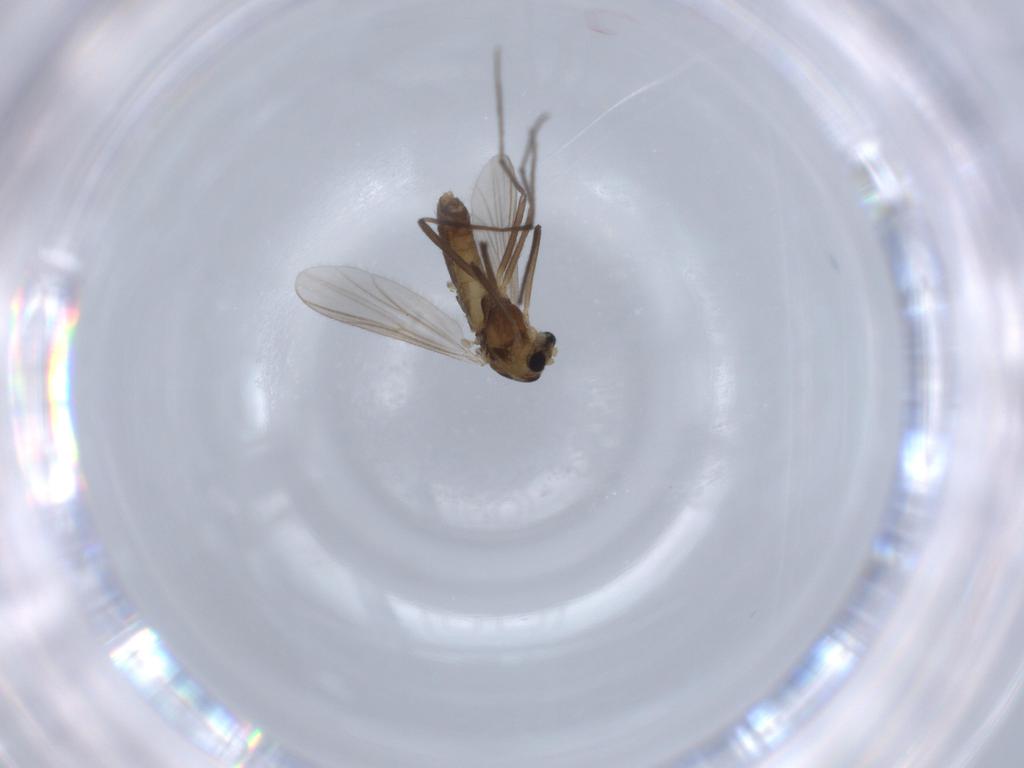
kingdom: Animalia
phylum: Arthropoda
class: Insecta
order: Diptera
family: Chironomidae
